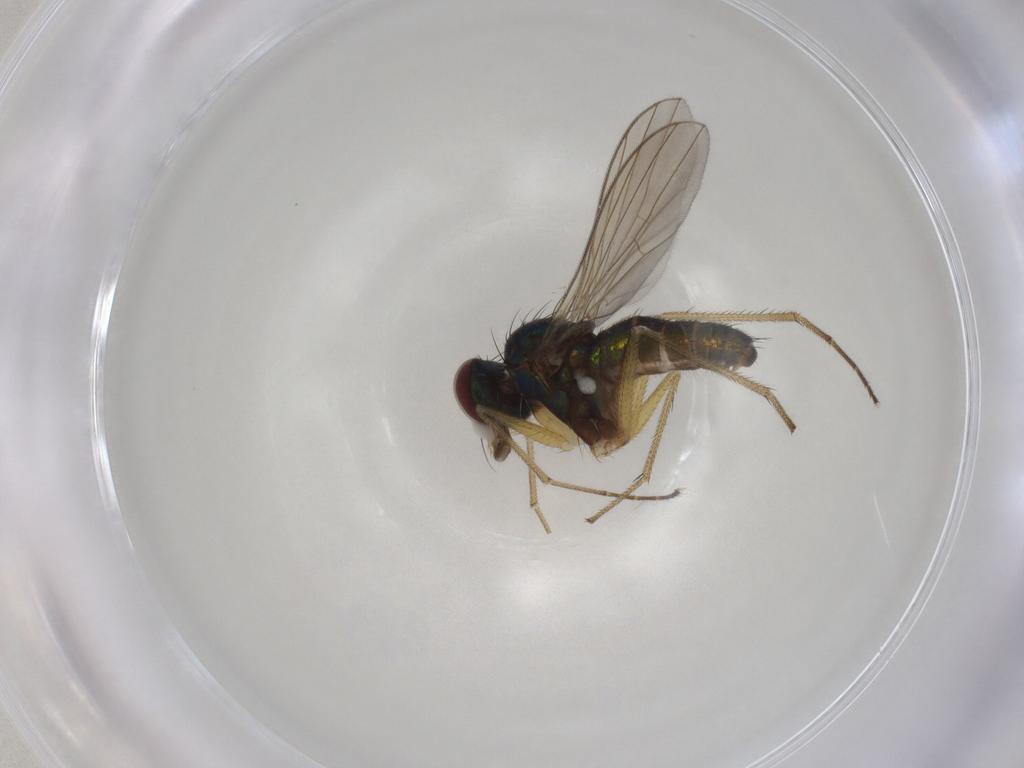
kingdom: Animalia
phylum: Arthropoda
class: Insecta
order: Diptera
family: Dolichopodidae
